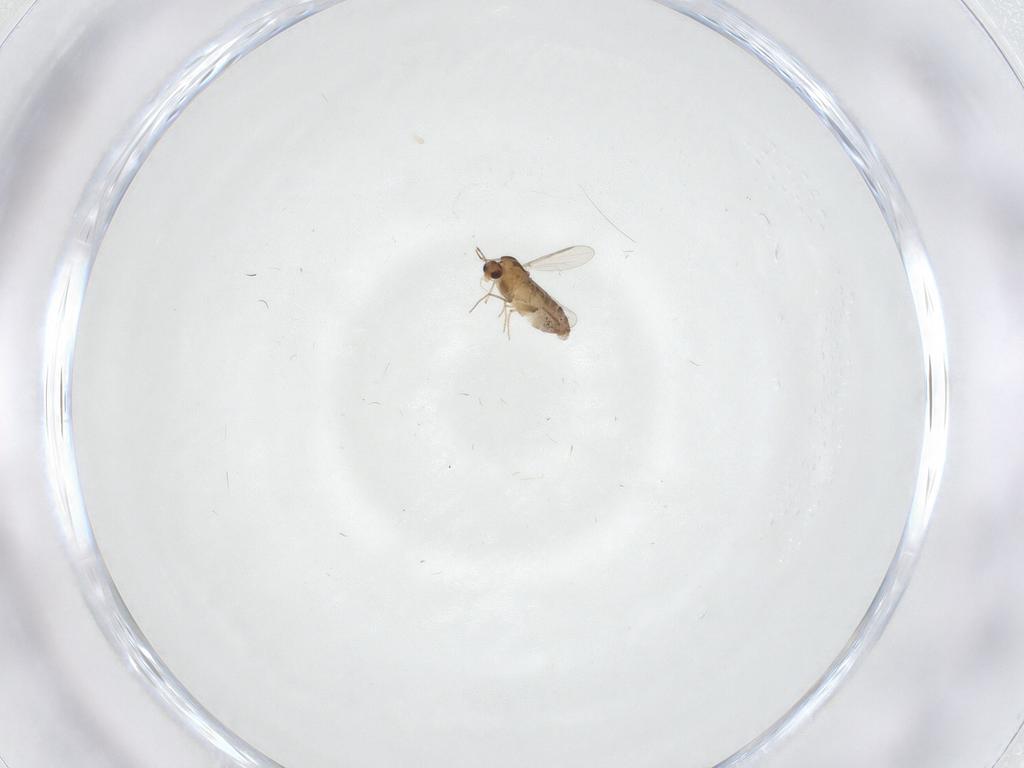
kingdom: Animalia
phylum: Arthropoda
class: Insecta
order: Diptera
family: Chironomidae
